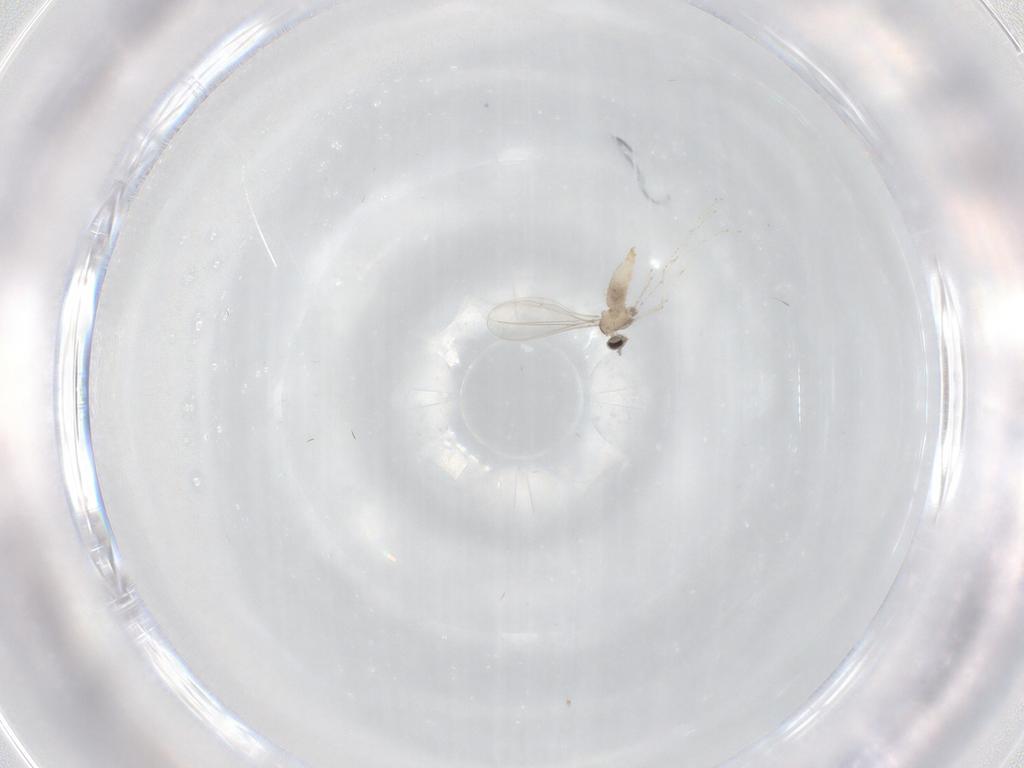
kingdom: Animalia
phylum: Arthropoda
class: Insecta
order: Diptera
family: Cecidomyiidae
